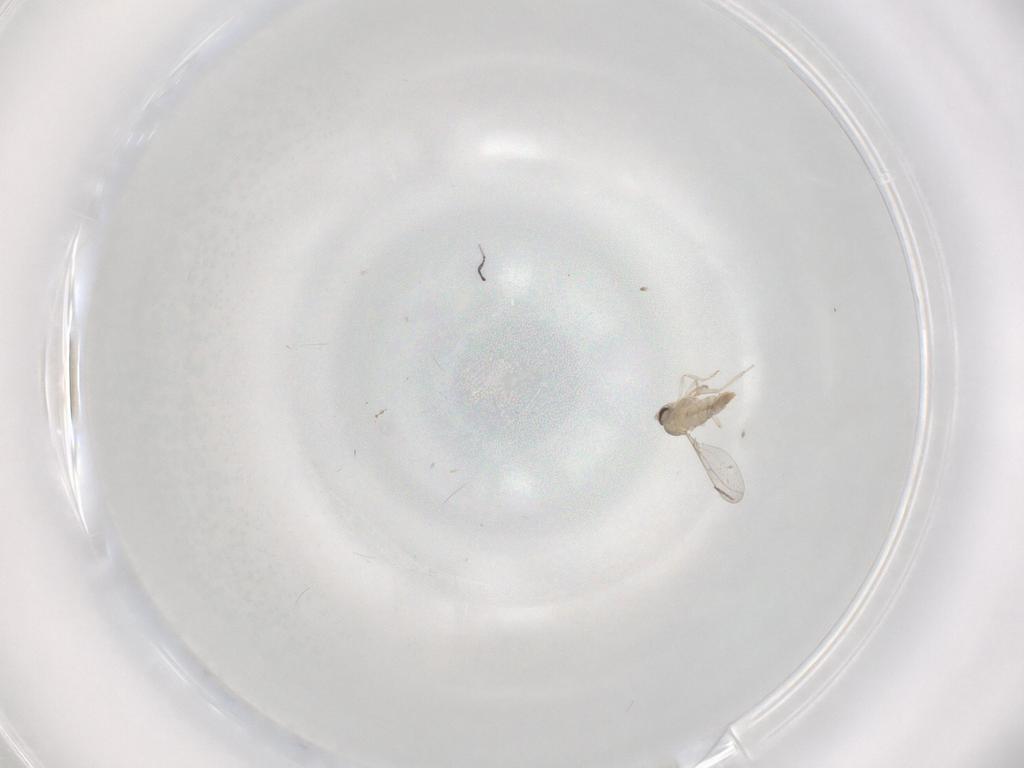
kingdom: Animalia
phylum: Arthropoda
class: Insecta
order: Diptera
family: Cecidomyiidae
